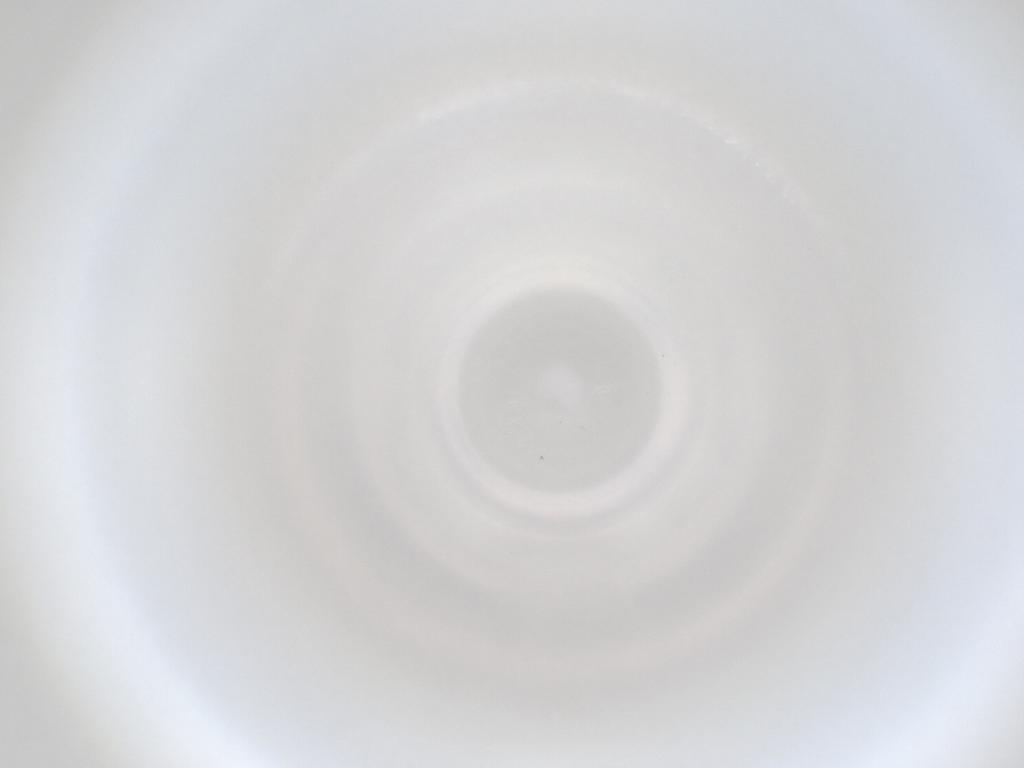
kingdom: Animalia
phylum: Arthropoda
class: Insecta
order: Diptera
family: Cecidomyiidae
